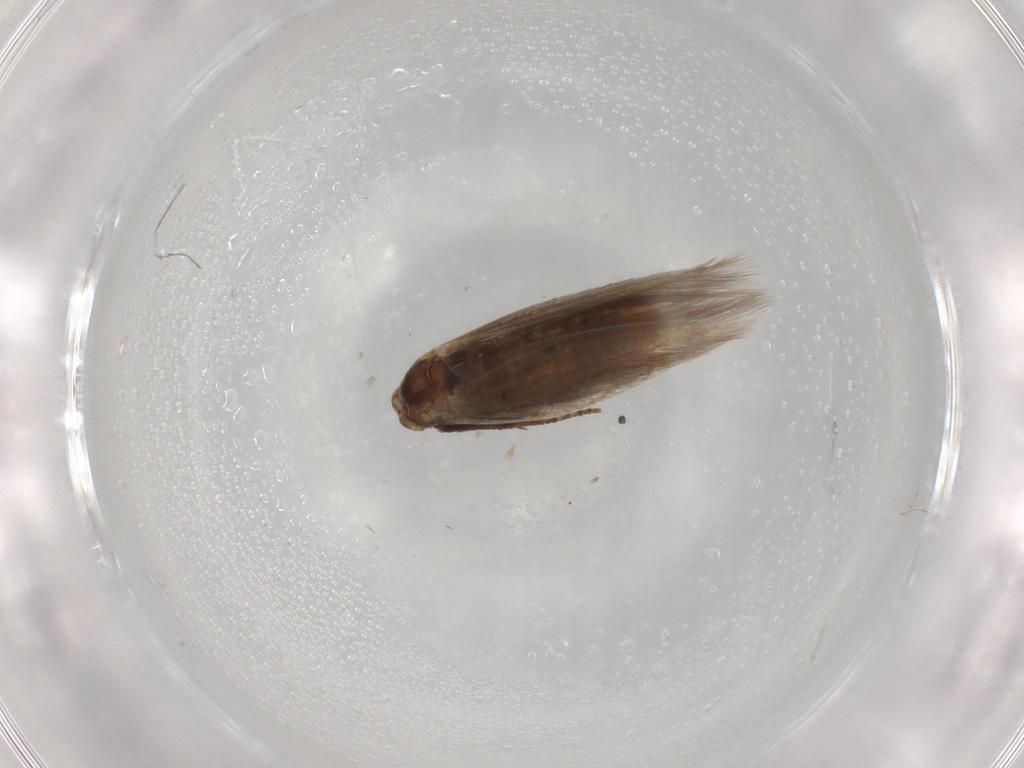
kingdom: Animalia
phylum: Arthropoda
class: Insecta
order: Lepidoptera
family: Bucculatricidae
